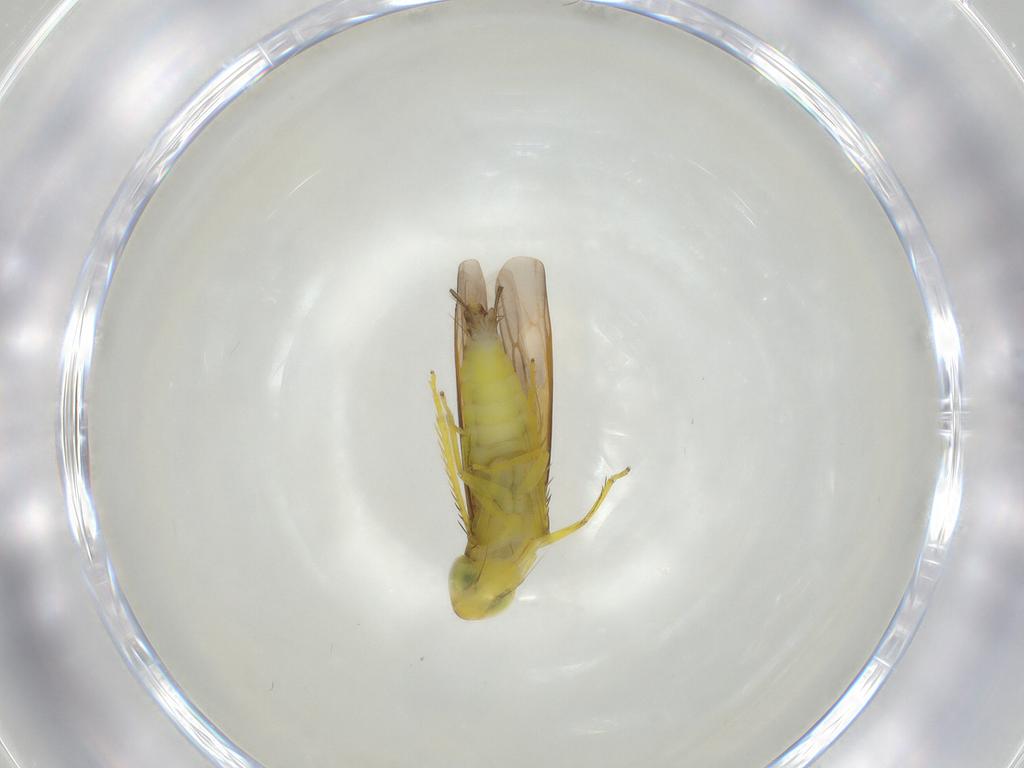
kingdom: Animalia
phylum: Arthropoda
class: Insecta
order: Hemiptera
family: Cicadellidae
